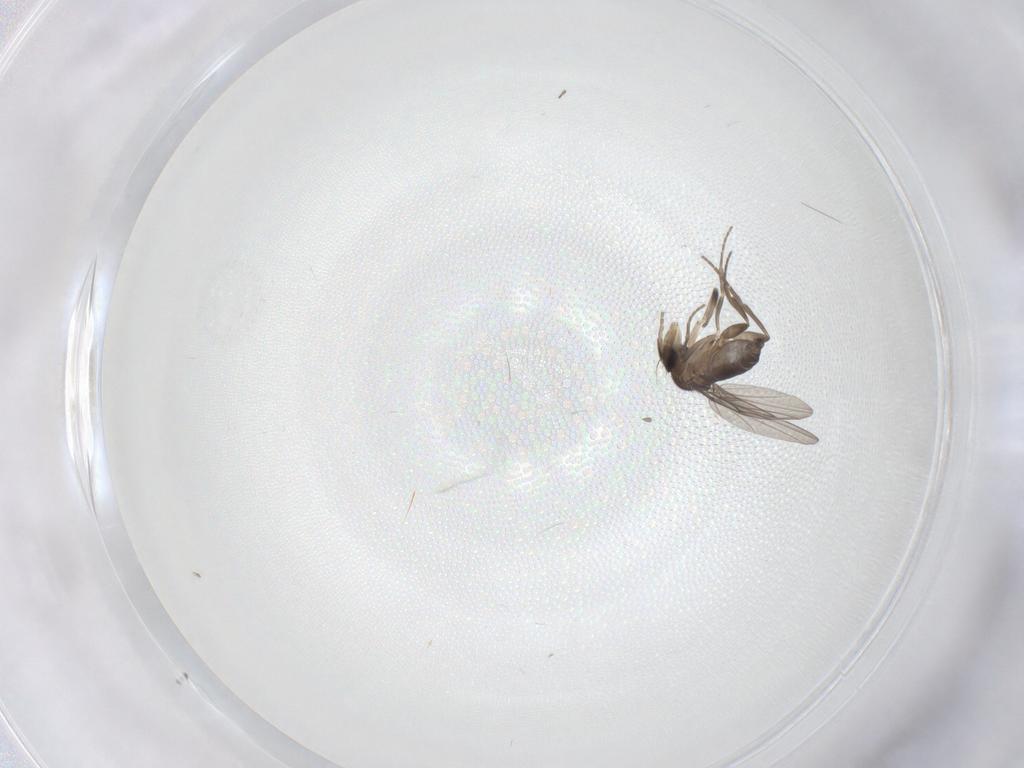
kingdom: Animalia
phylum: Arthropoda
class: Insecta
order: Diptera
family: Phoridae
